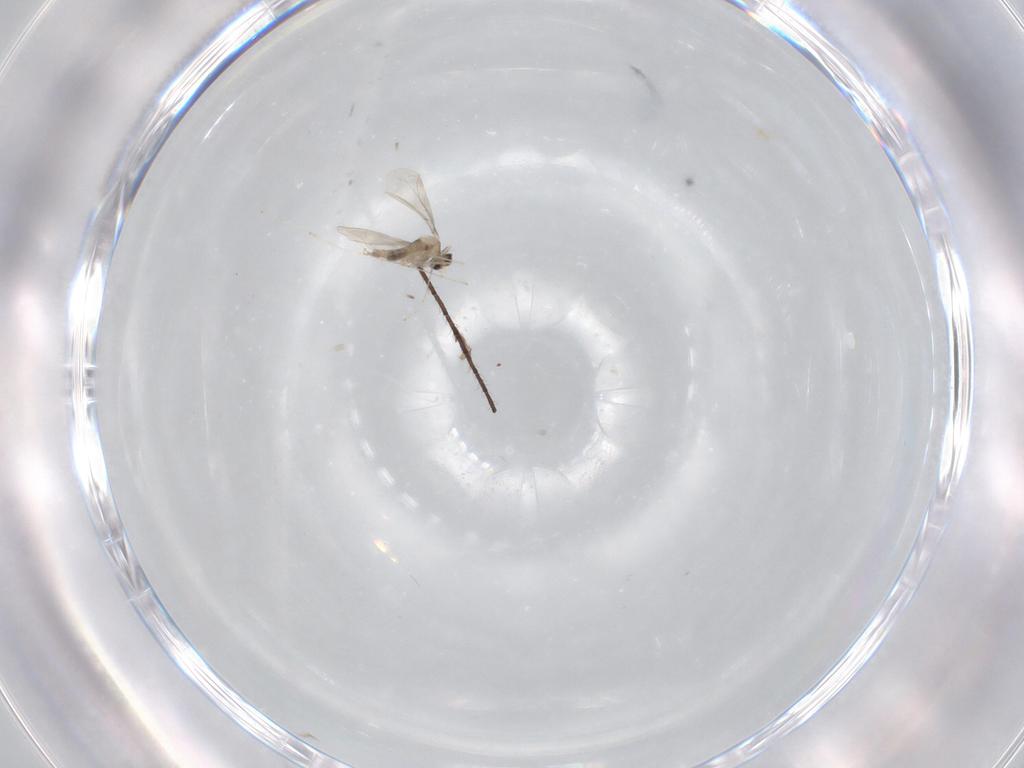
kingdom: Animalia
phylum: Arthropoda
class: Insecta
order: Diptera
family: Cecidomyiidae
